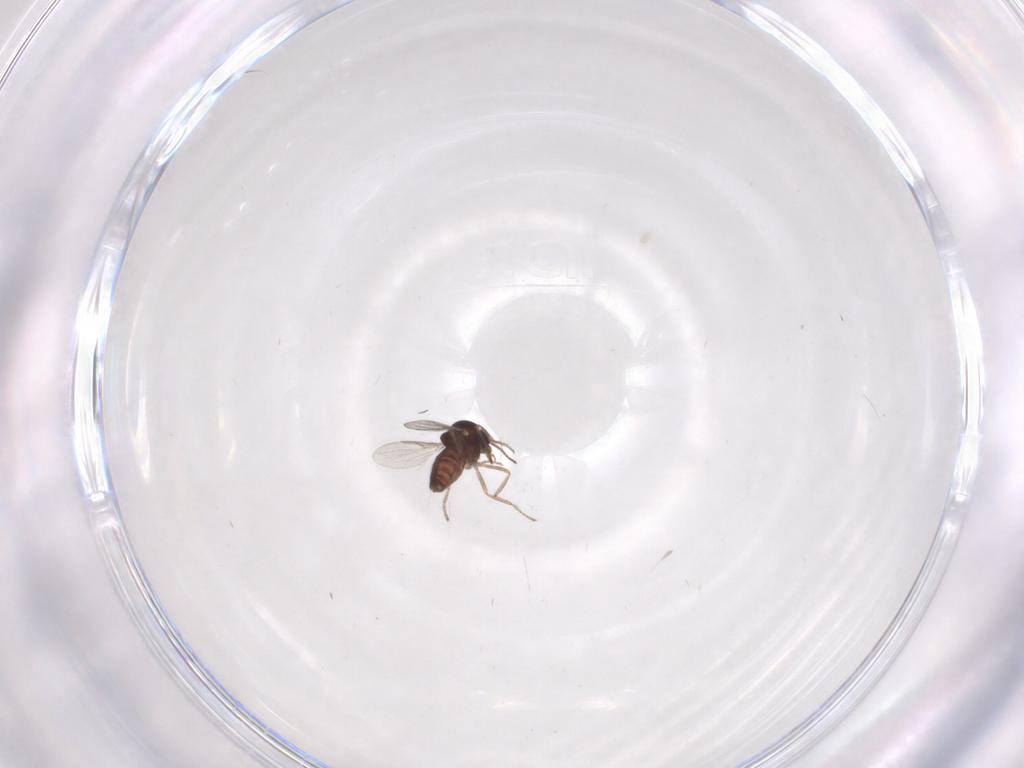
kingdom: Animalia
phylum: Arthropoda
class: Insecta
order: Diptera
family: Ceratopogonidae
